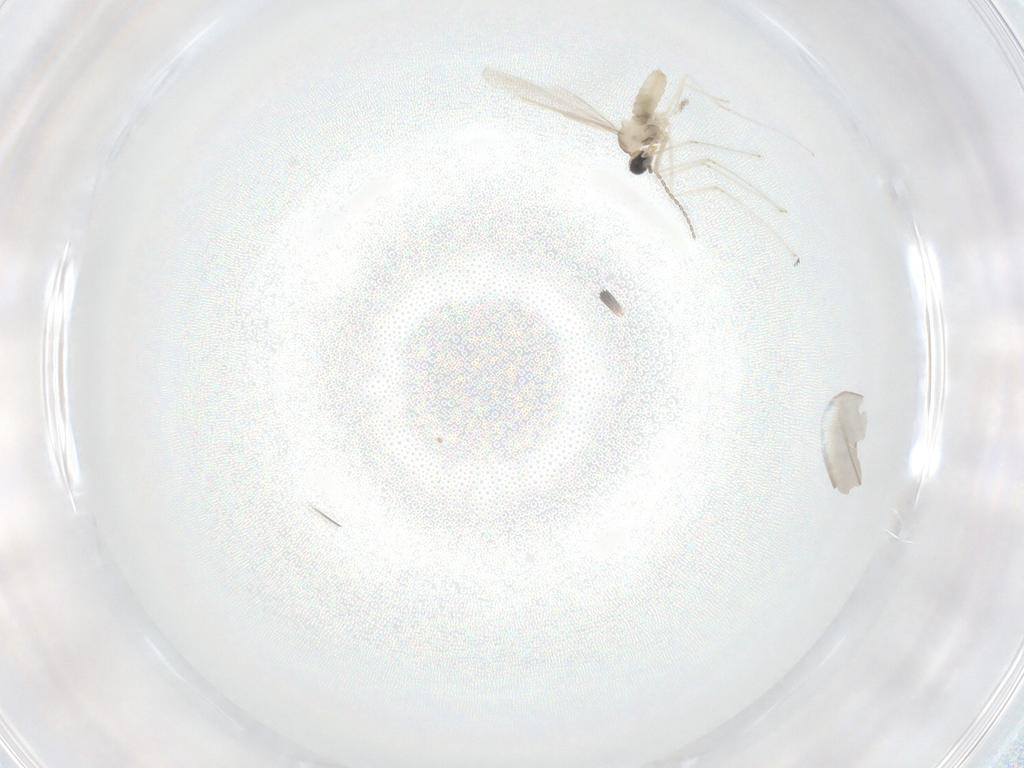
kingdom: Animalia
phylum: Arthropoda
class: Insecta
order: Diptera
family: Cecidomyiidae
